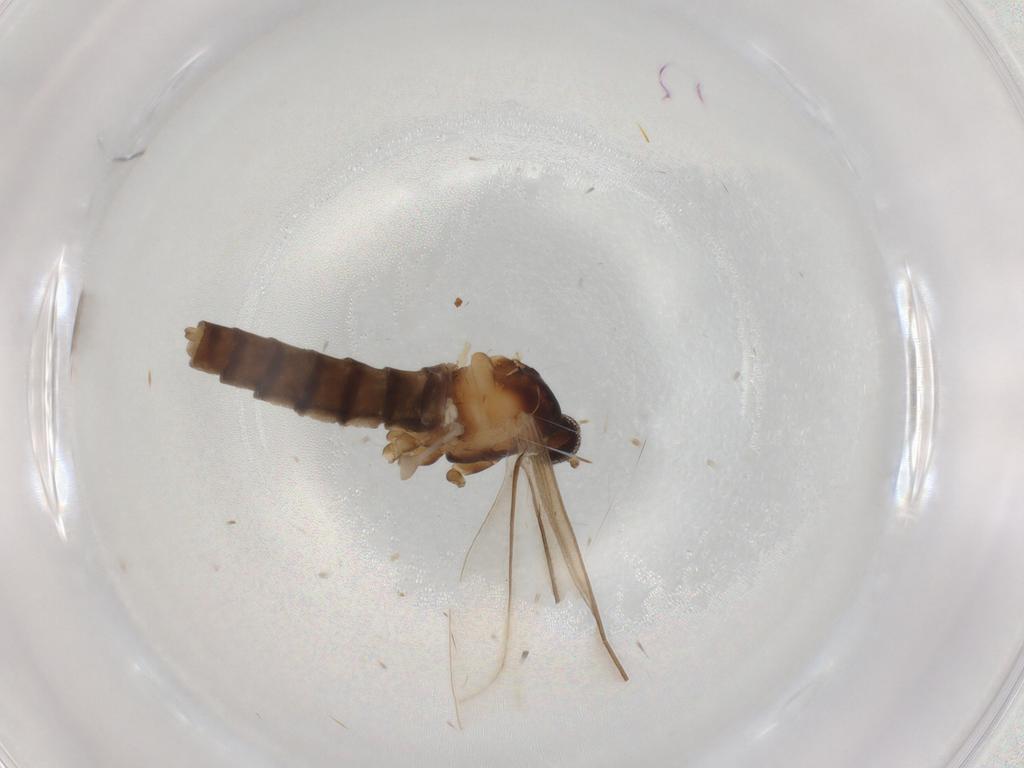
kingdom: Animalia
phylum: Arthropoda
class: Insecta
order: Diptera
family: Cecidomyiidae
